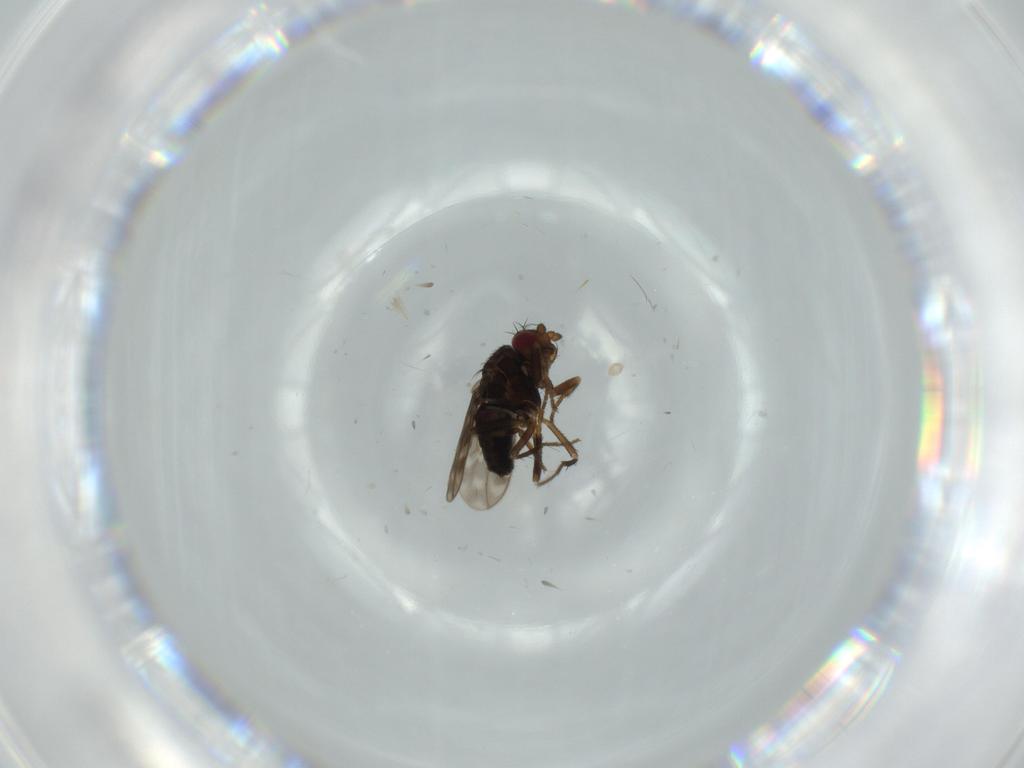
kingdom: Animalia
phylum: Arthropoda
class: Insecta
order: Diptera
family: Sphaeroceridae
